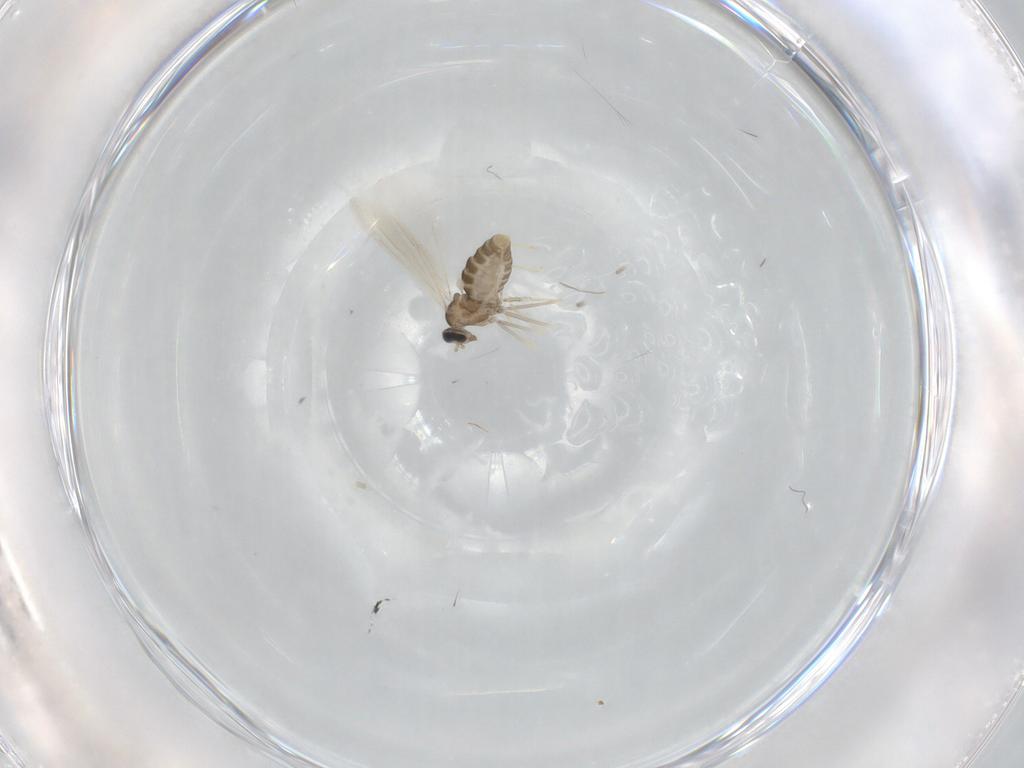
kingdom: Animalia
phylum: Arthropoda
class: Insecta
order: Diptera
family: Cecidomyiidae
